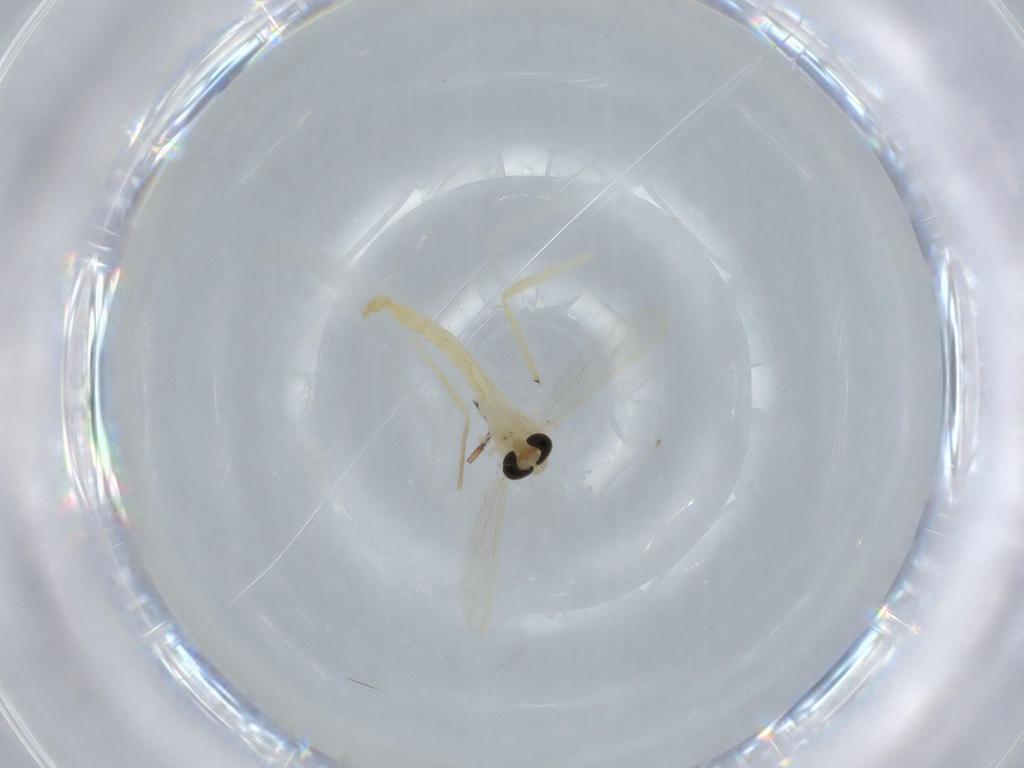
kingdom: Animalia
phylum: Arthropoda
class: Insecta
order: Diptera
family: Chironomidae
